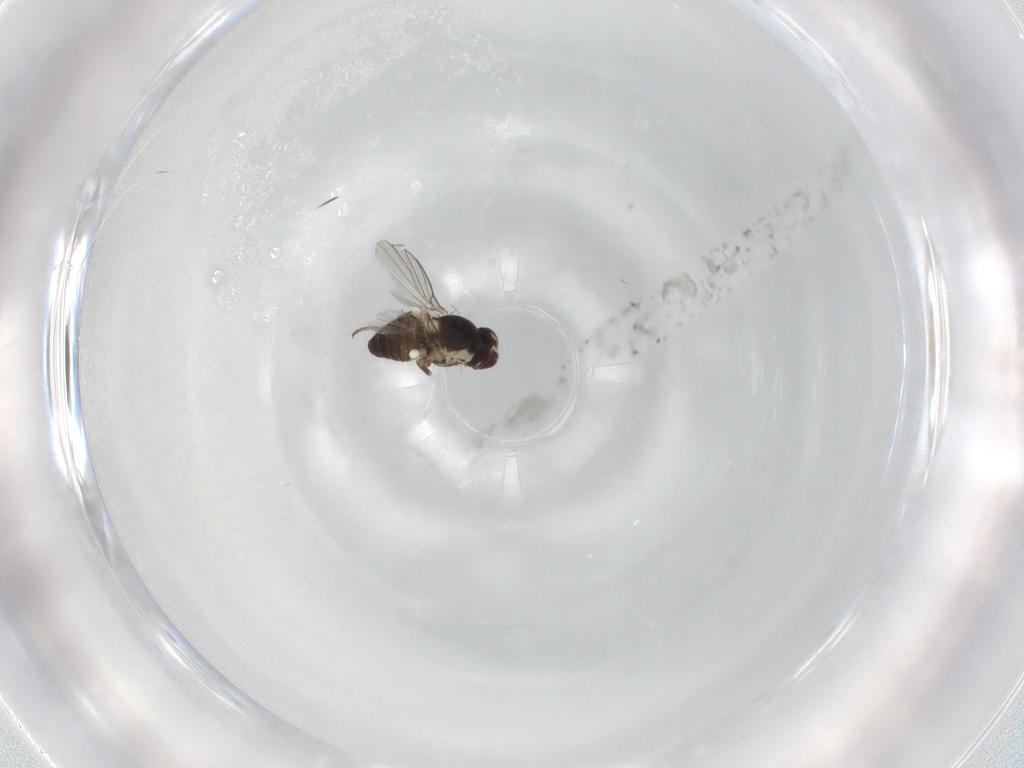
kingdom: Animalia
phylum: Arthropoda
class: Insecta
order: Diptera
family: Agromyzidae
